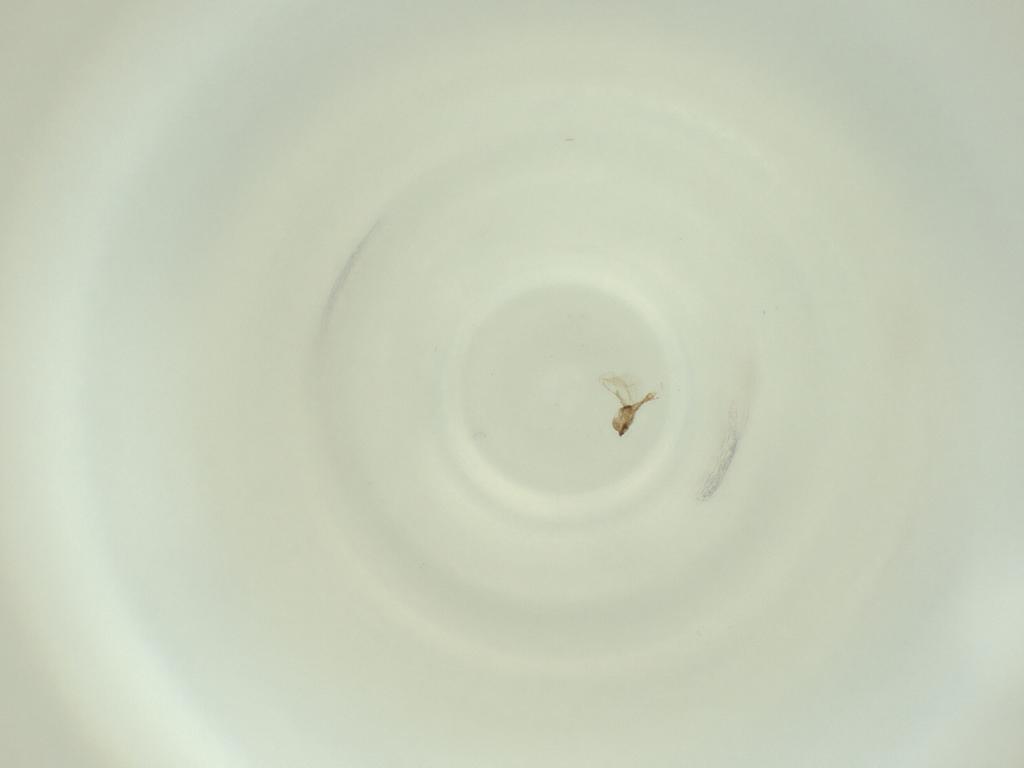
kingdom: Animalia
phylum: Arthropoda
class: Insecta
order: Diptera
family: Cecidomyiidae
